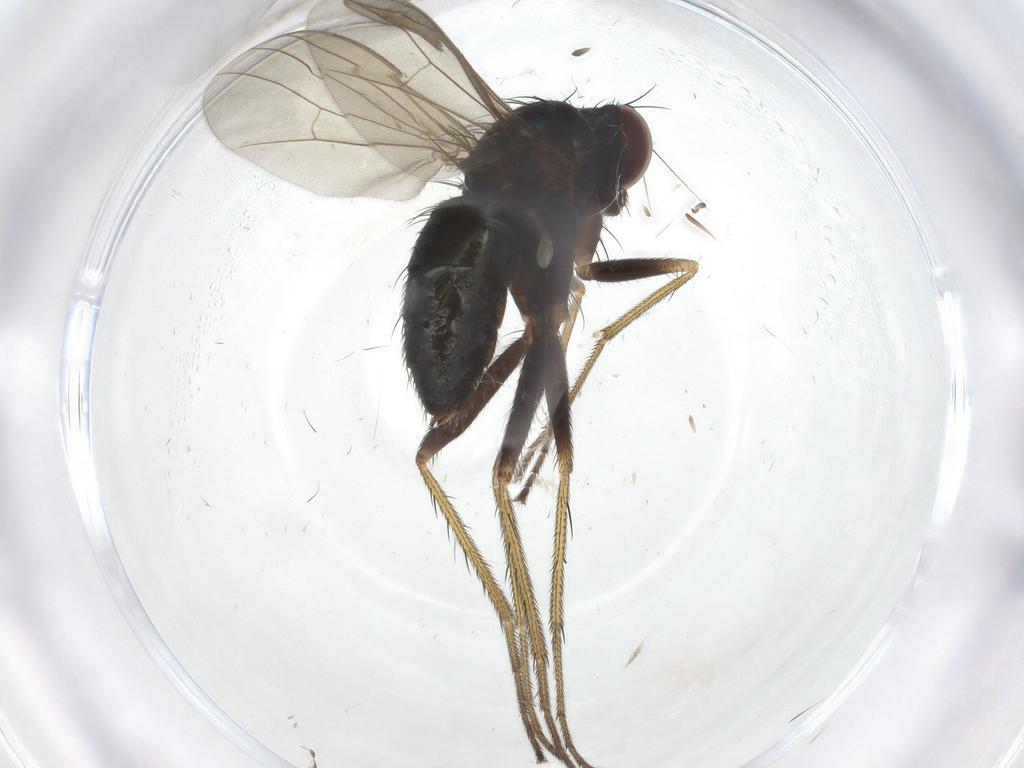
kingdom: Animalia
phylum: Arthropoda
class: Insecta
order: Diptera
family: Dolichopodidae
